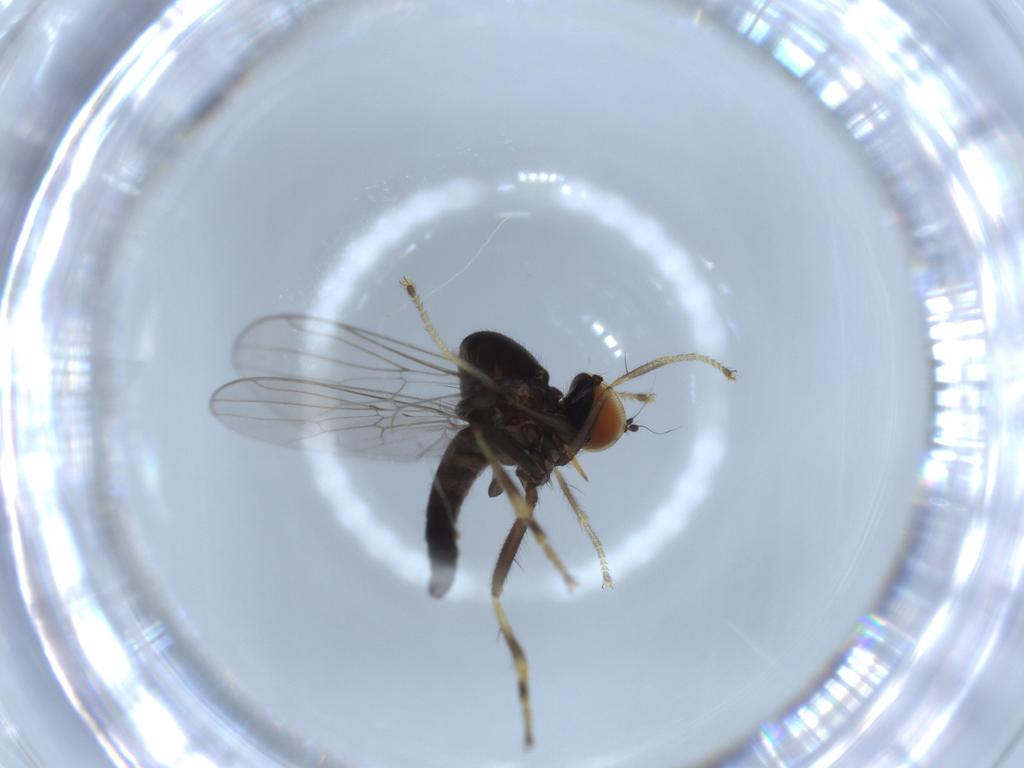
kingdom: Animalia
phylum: Arthropoda
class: Insecta
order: Diptera
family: Hybotidae
